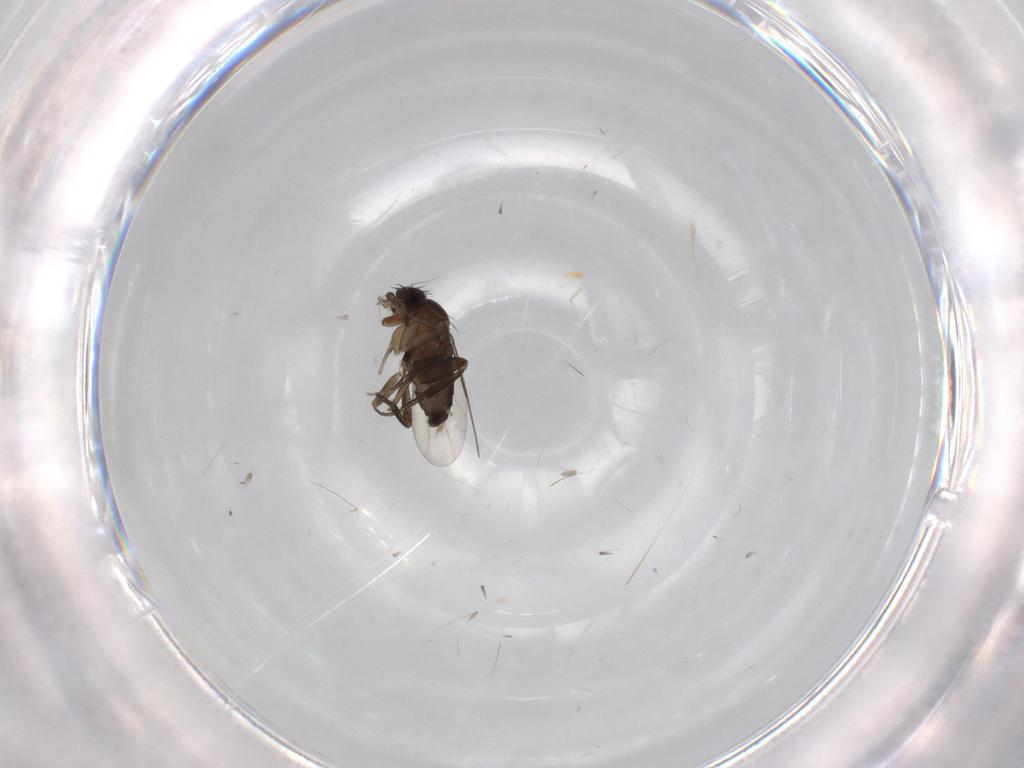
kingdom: Animalia
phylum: Arthropoda
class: Insecta
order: Diptera
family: Phoridae
